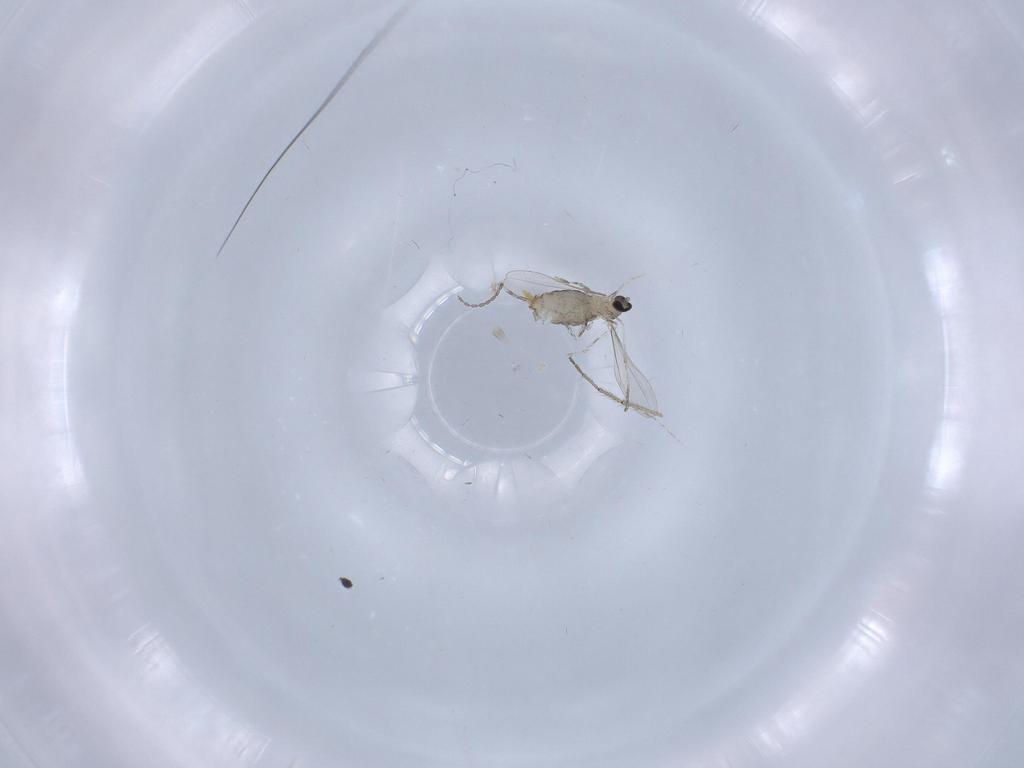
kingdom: Animalia
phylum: Arthropoda
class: Insecta
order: Diptera
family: Cecidomyiidae
